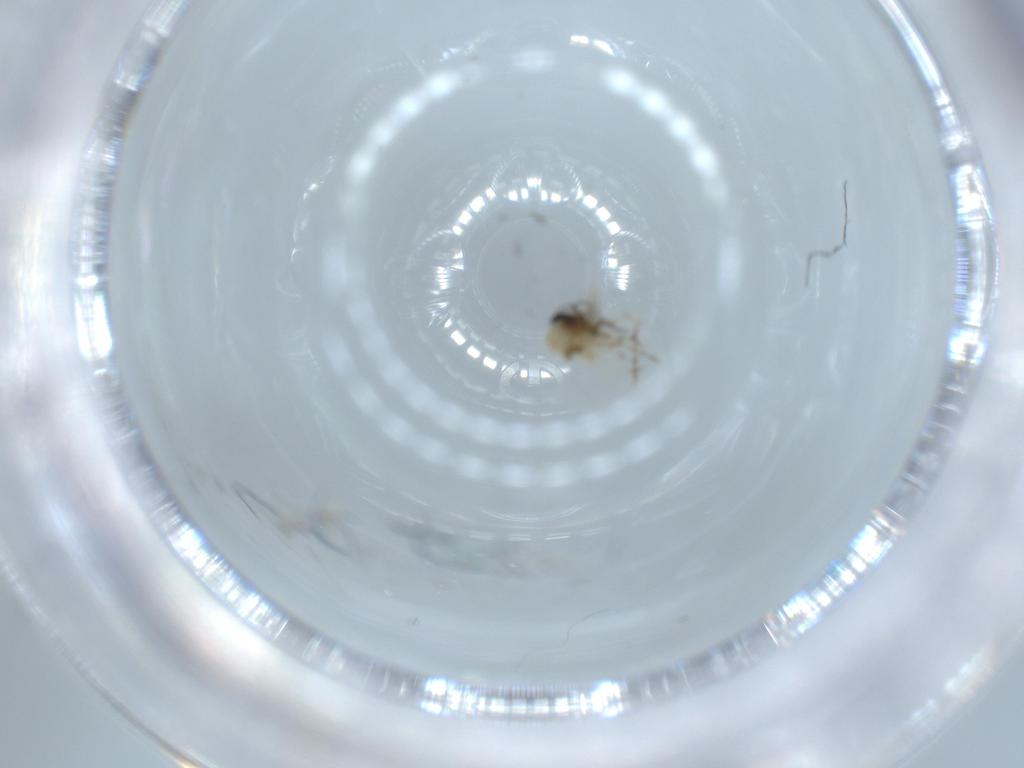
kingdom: Animalia
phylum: Arthropoda
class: Insecta
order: Diptera
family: Ceratopogonidae
